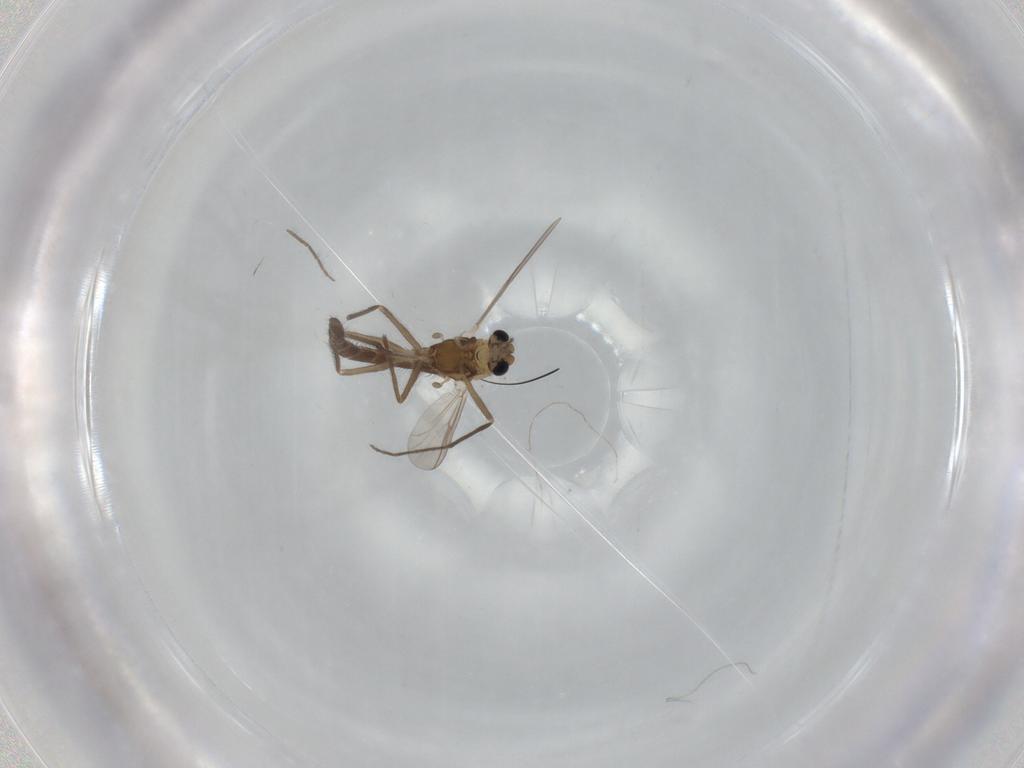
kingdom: Animalia
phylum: Arthropoda
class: Insecta
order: Diptera
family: Chironomidae
